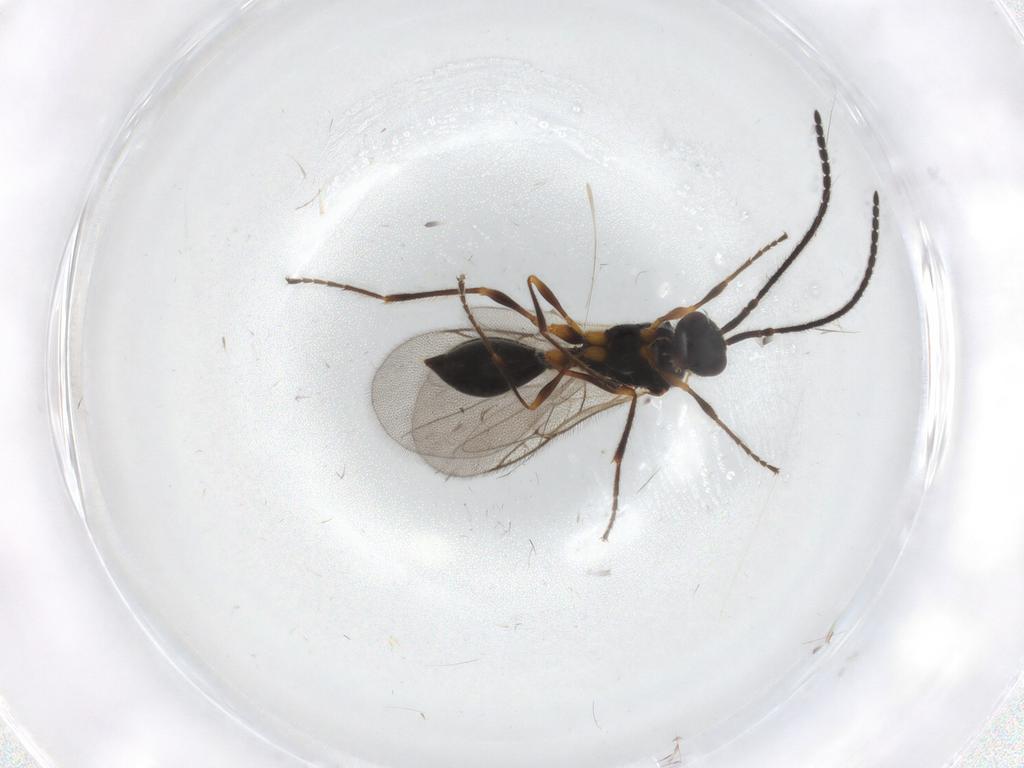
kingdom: Animalia
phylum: Arthropoda
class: Insecta
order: Hymenoptera
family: Diapriidae
